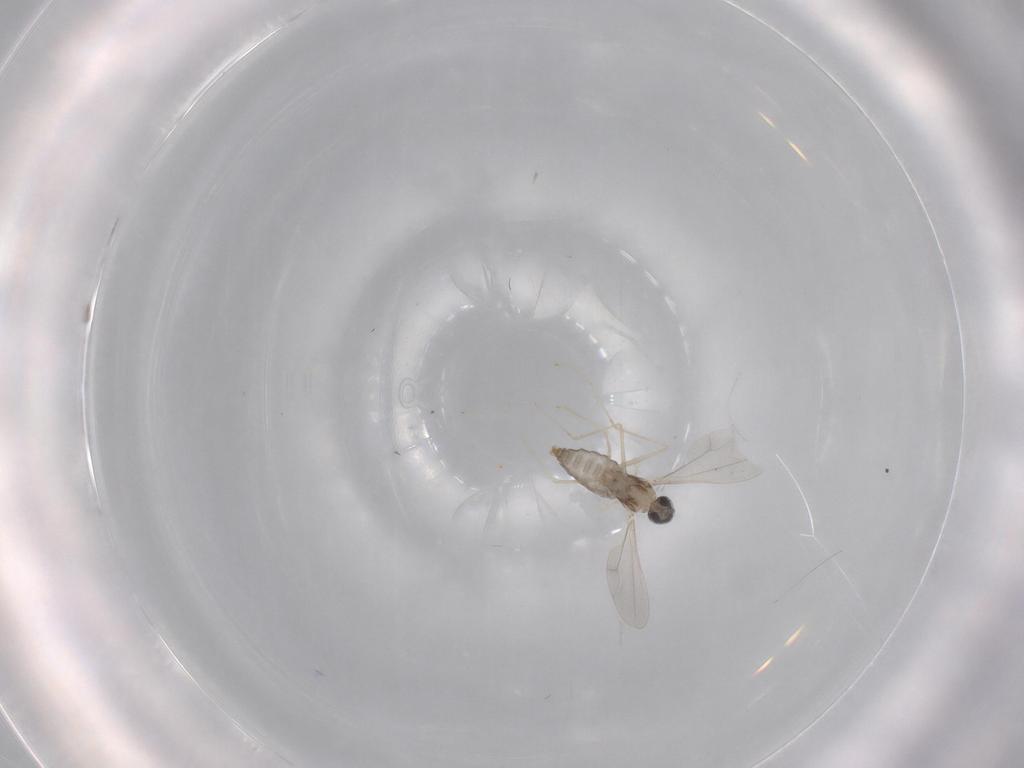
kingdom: Animalia
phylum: Arthropoda
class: Insecta
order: Diptera
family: Sphaeroceridae
